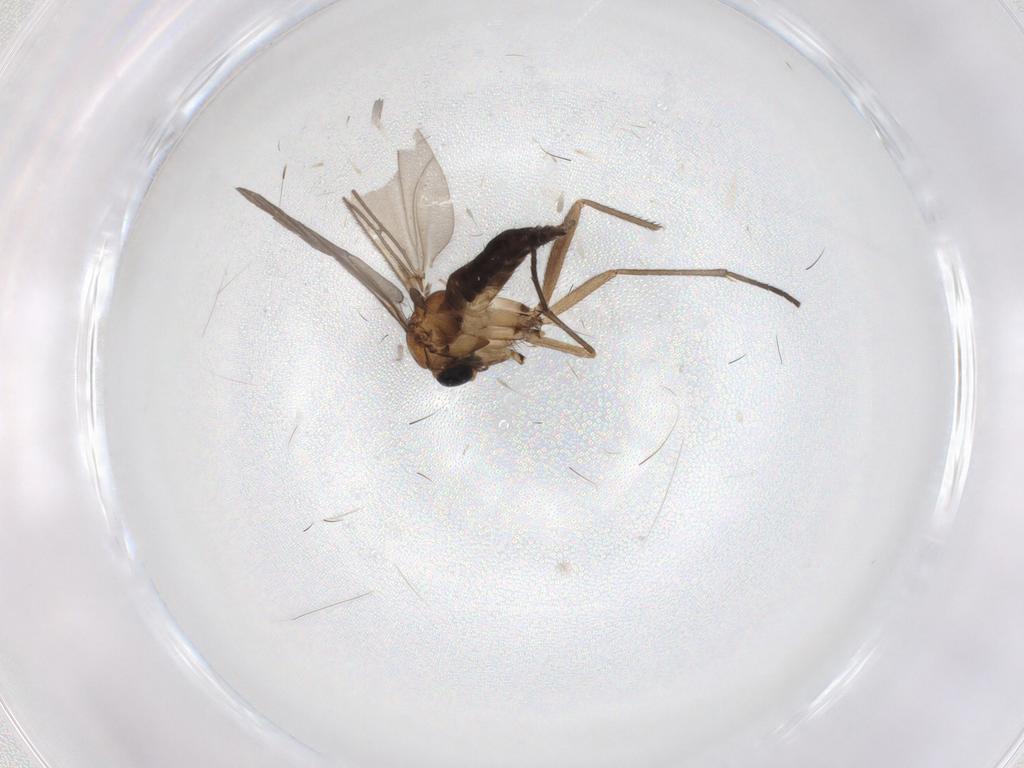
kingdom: Animalia
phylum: Arthropoda
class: Insecta
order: Diptera
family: Sciaridae
